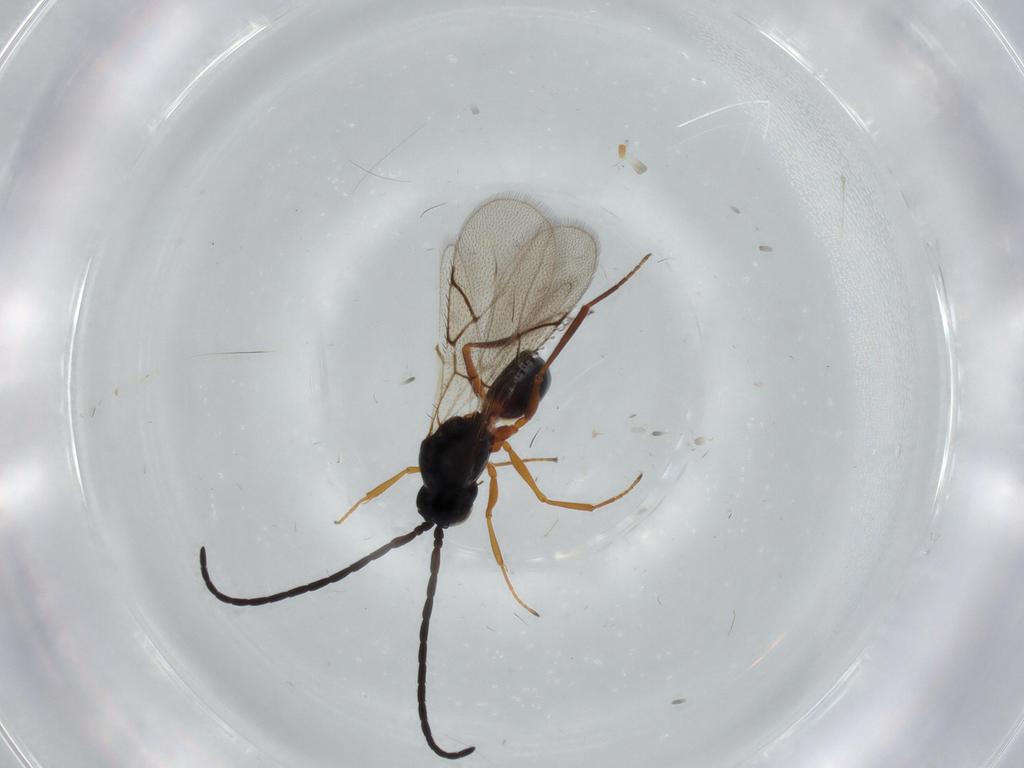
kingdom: Animalia
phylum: Arthropoda
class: Insecta
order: Hymenoptera
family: Figitidae
